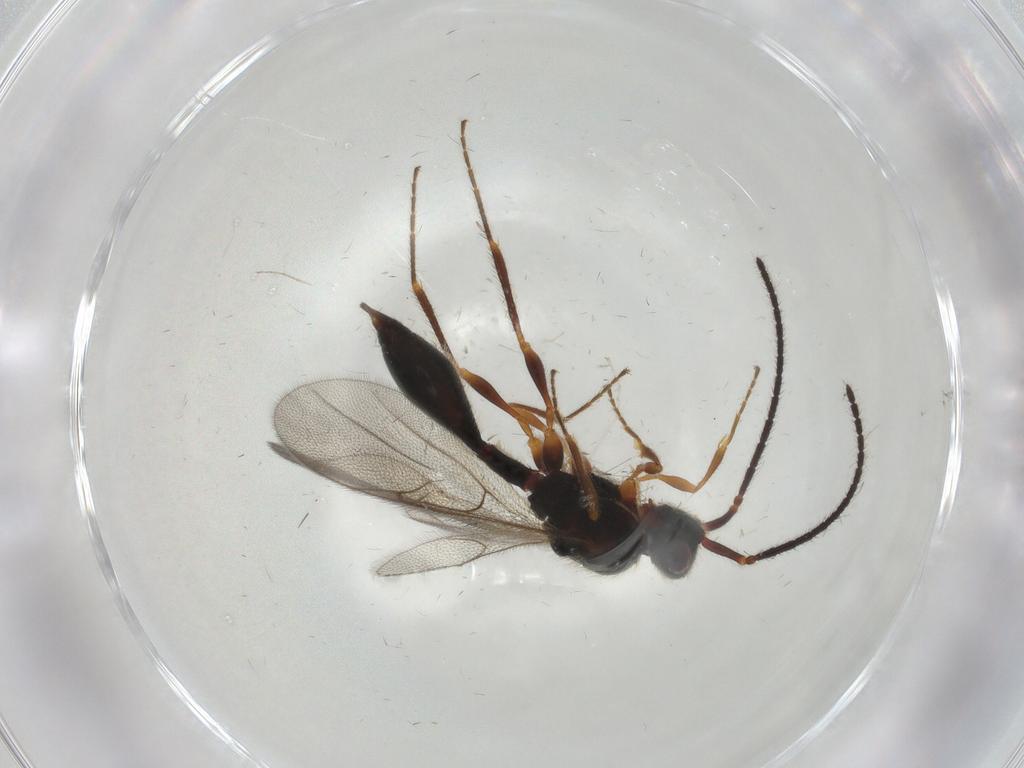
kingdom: Animalia
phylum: Arthropoda
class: Insecta
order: Hymenoptera
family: Diapriidae
